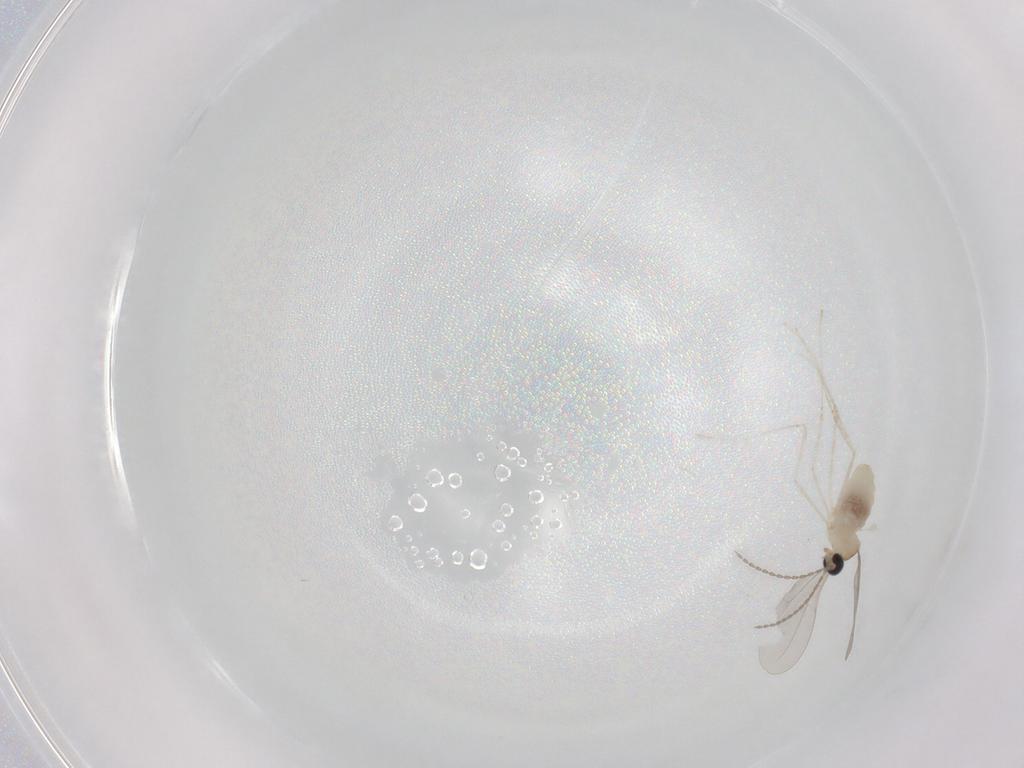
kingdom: Animalia
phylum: Arthropoda
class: Insecta
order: Diptera
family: Cecidomyiidae
